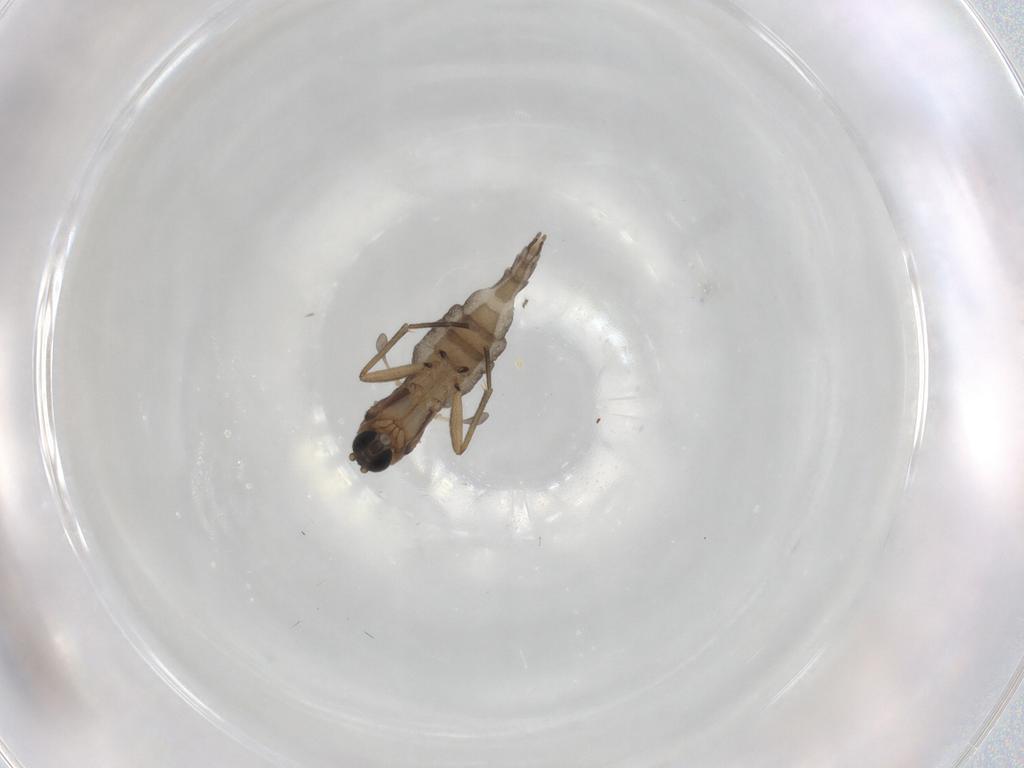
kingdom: Animalia
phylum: Arthropoda
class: Insecta
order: Diptera
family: Sciaridae
